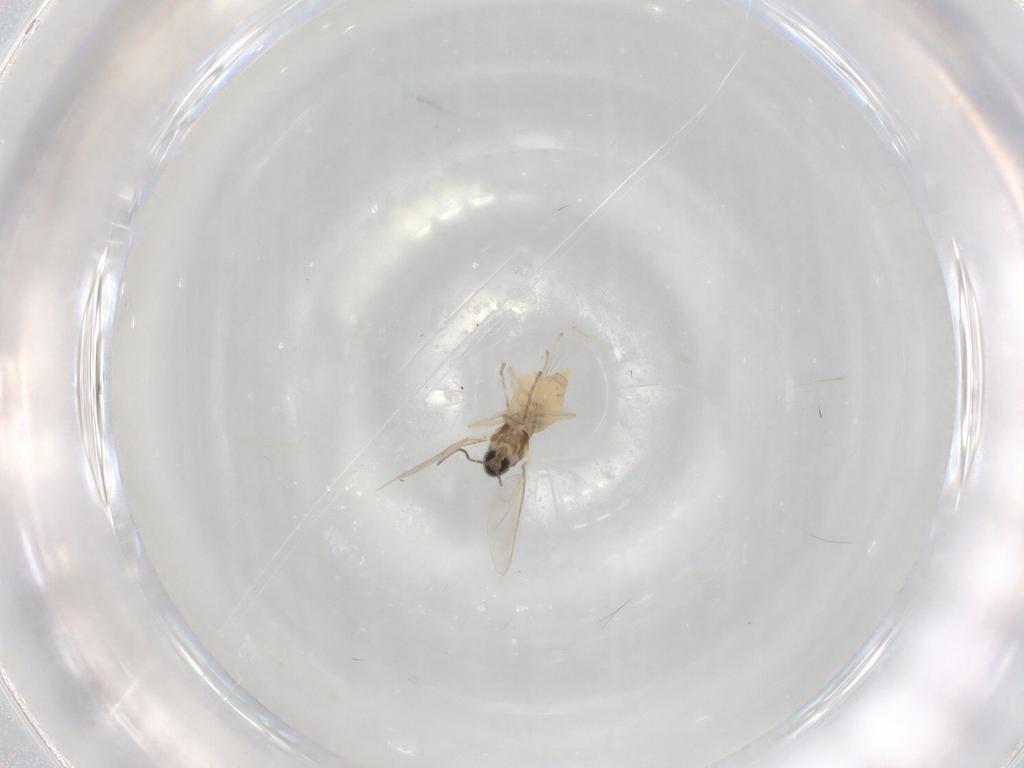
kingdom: Animalia
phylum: Arthropoda
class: Insecta
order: Diptera
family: Cecidomyiidae
